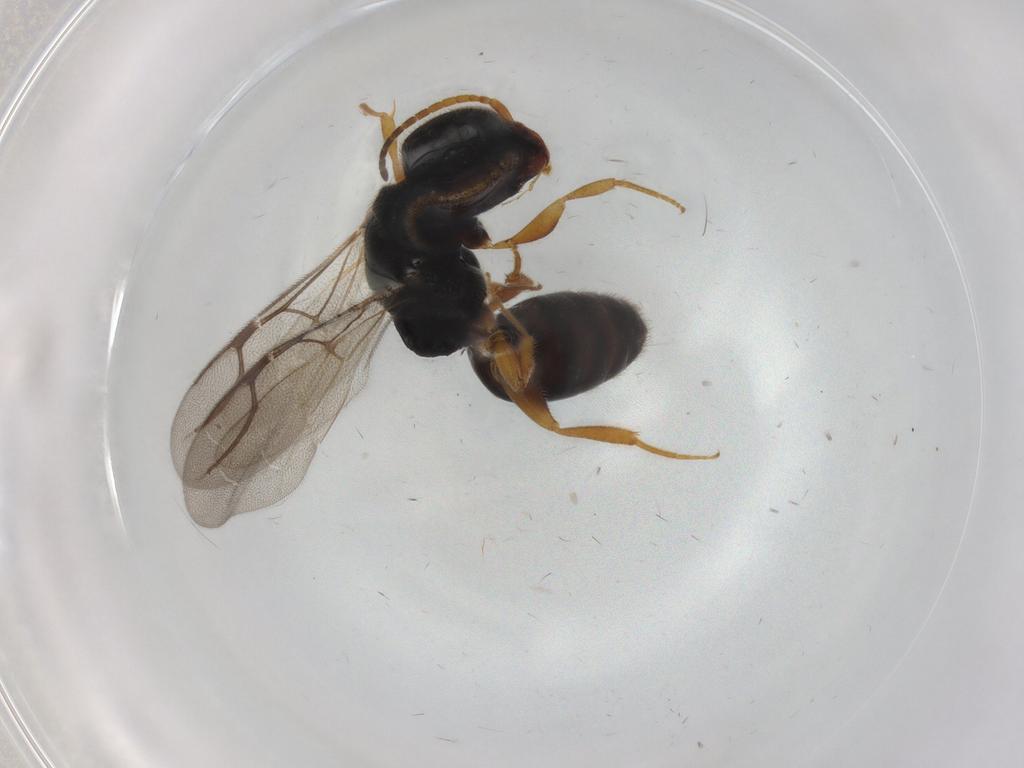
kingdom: Animalia
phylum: Arthropoda
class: Insecta
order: Hymenoptera
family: Bethylidae
